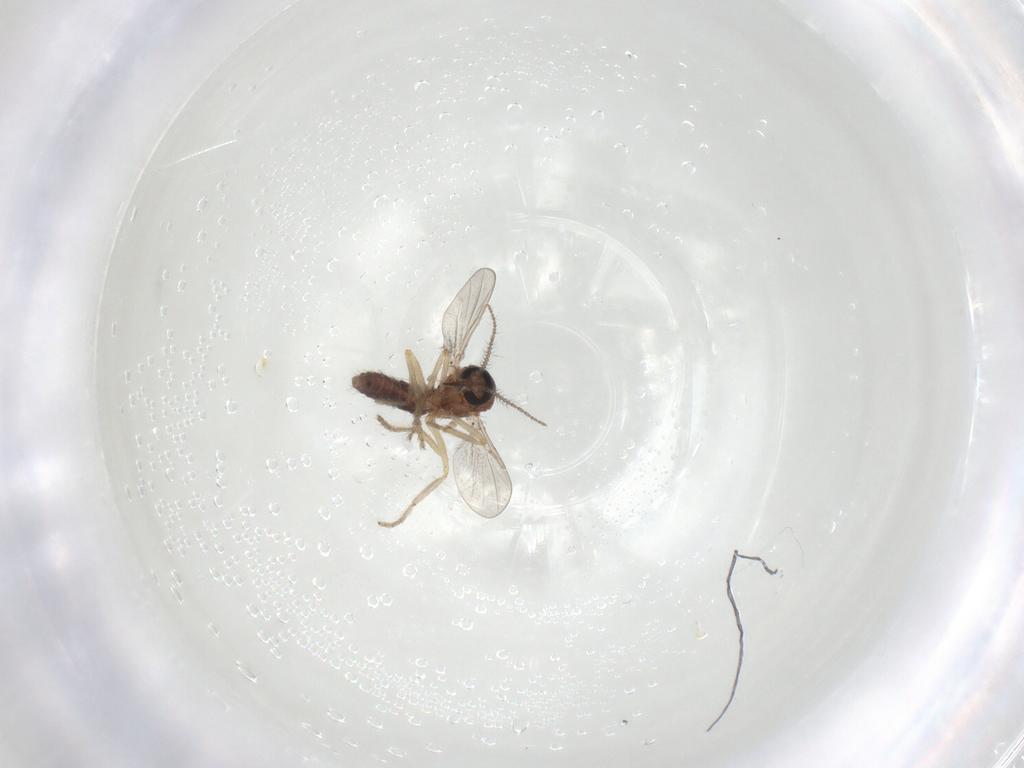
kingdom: Animalia
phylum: Arthropoda
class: Insecta
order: Diptera
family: Ceratopogonidae
